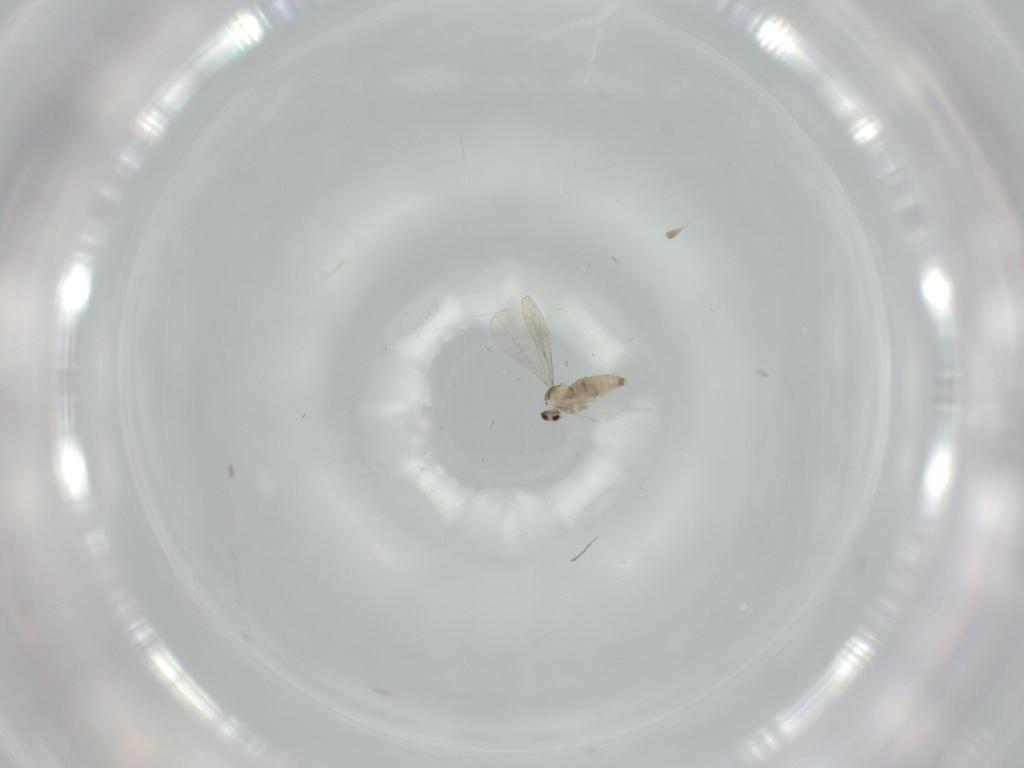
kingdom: Animalia
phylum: Arthropoda
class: Insecta
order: Diptera
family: Cecidomyiidae
